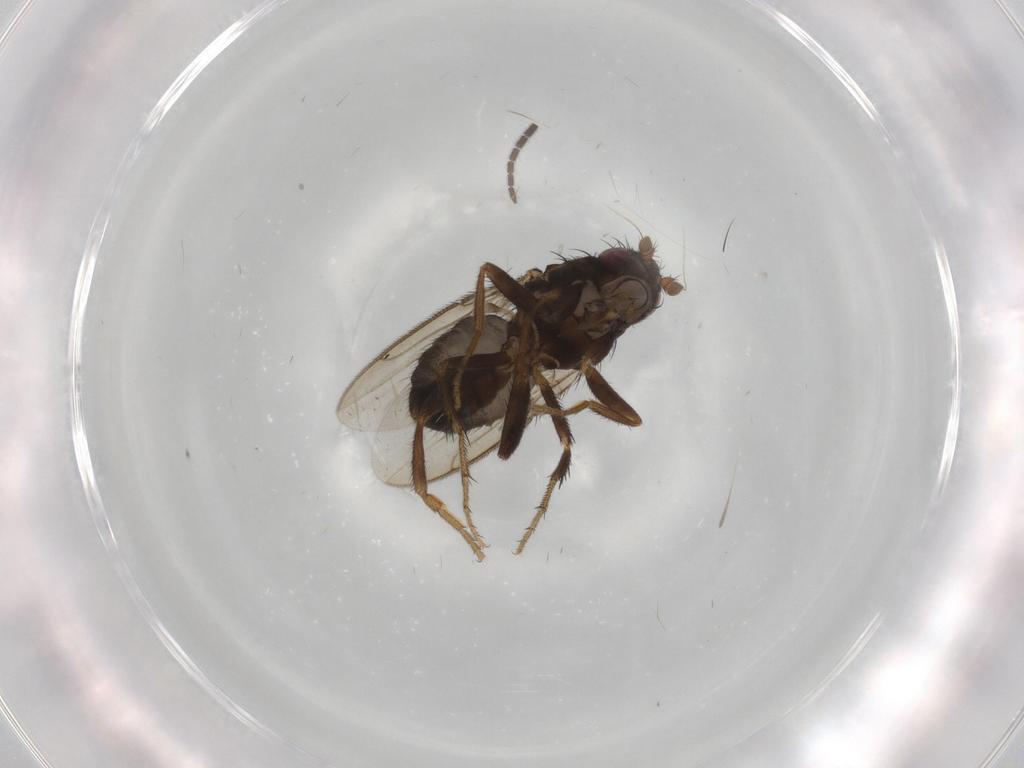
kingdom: Animalia
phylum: Arthropoda
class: Insecta
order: Diptera
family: Sphaeroceridae
